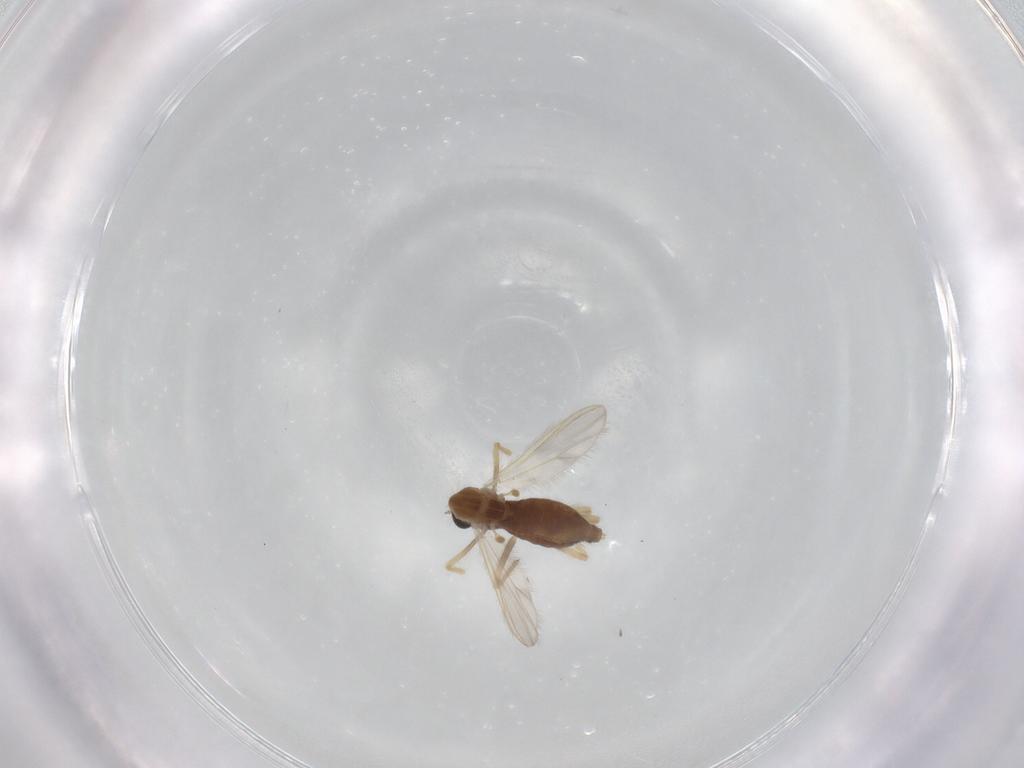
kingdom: Animalia
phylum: Arthropoda
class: Insecta
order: Diptera
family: Chironomidae
